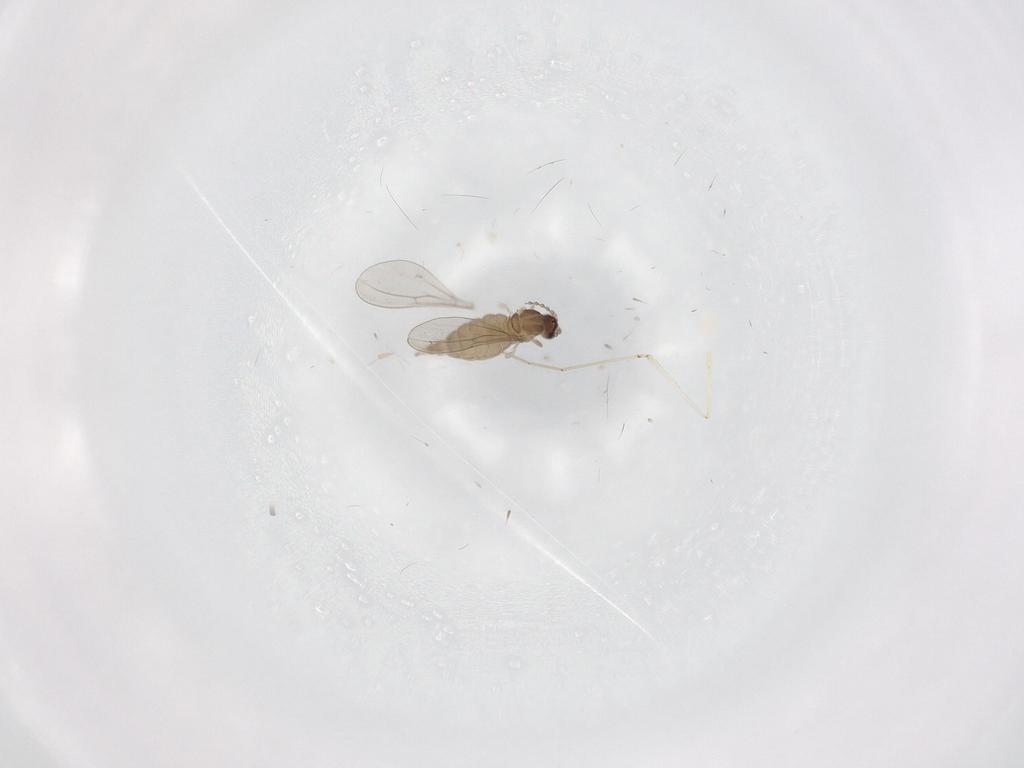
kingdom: Animalia
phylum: Arthropoda
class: Insecta
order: Diptera
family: Cecidomyiidae
